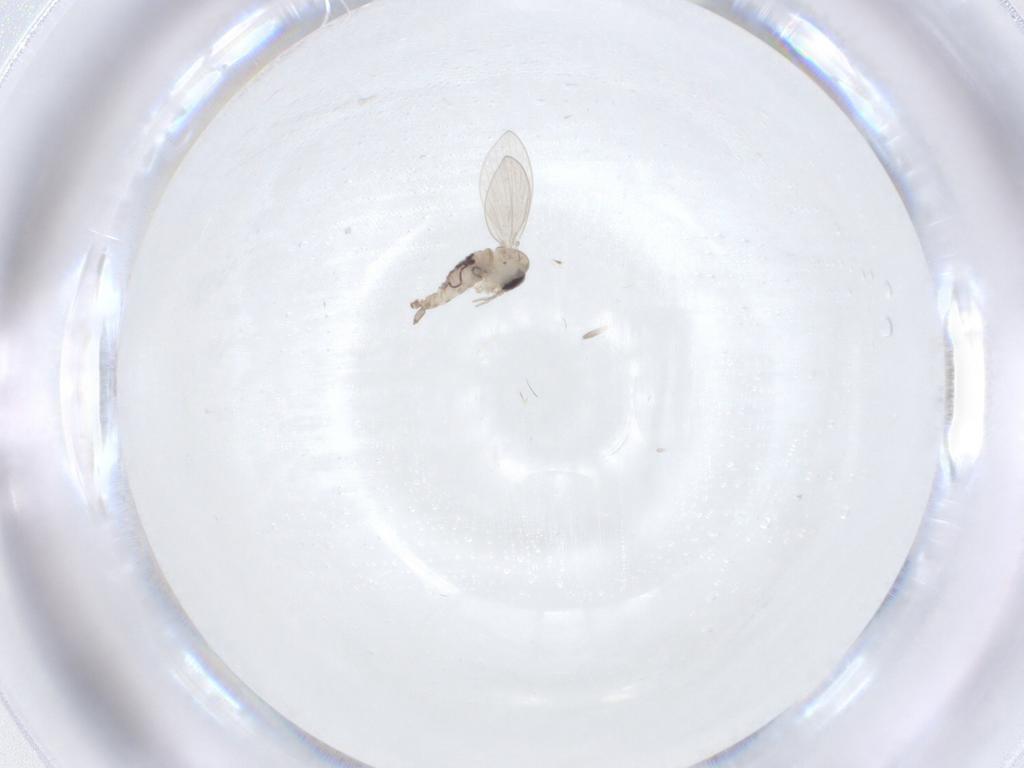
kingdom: Animalia
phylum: Arthropoda
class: Insecta
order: Diptera
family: Psychodidae
